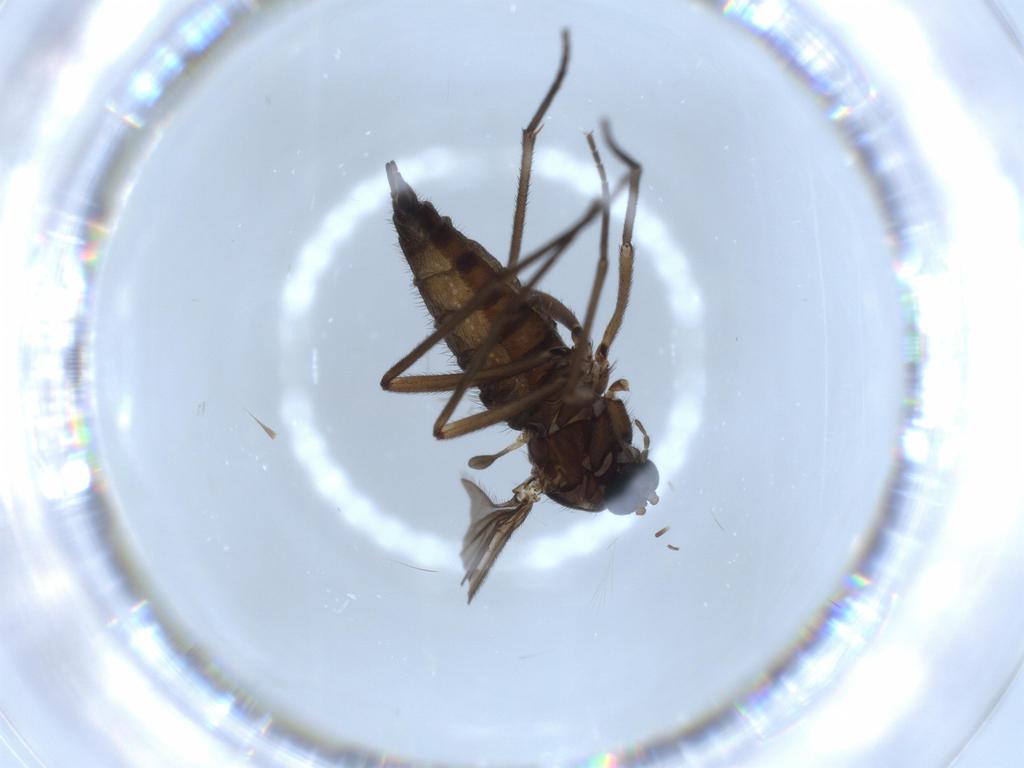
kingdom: Animalia
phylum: Arthropoda
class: Insecta
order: Diptera
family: Sciaridae
